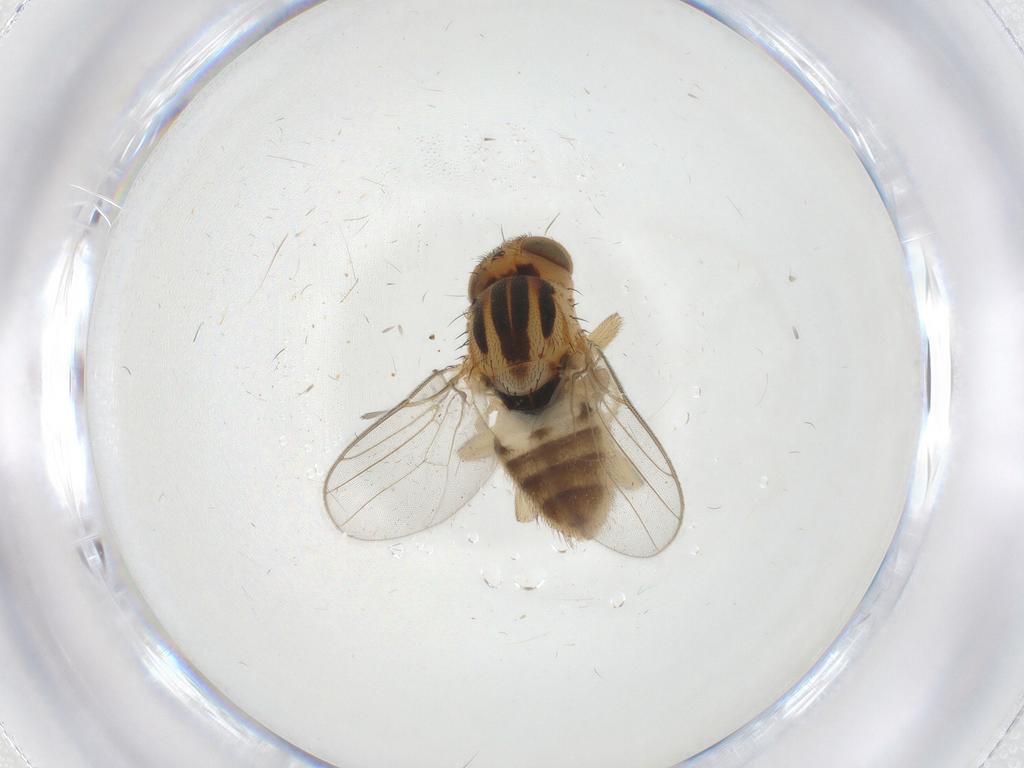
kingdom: Animalia
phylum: Arthropoda
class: Insecta
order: Diptera
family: Chloropidae
